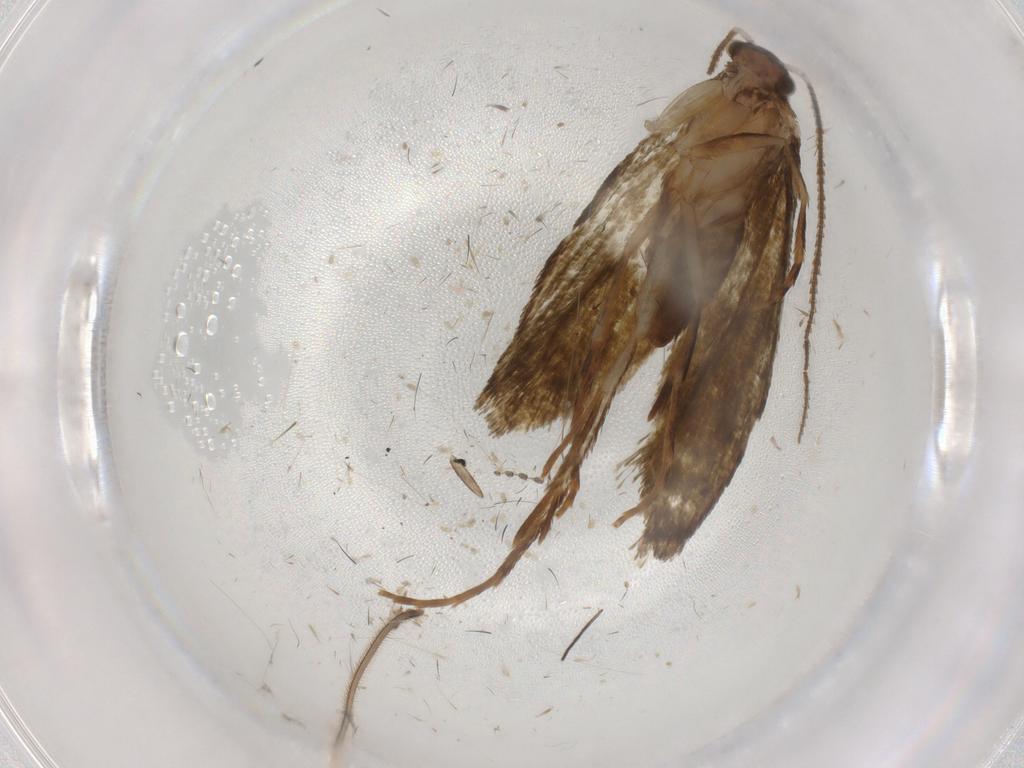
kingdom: Animalia
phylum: Arthropoda
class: Insecta
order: Lepidoptera
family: Tineidae
